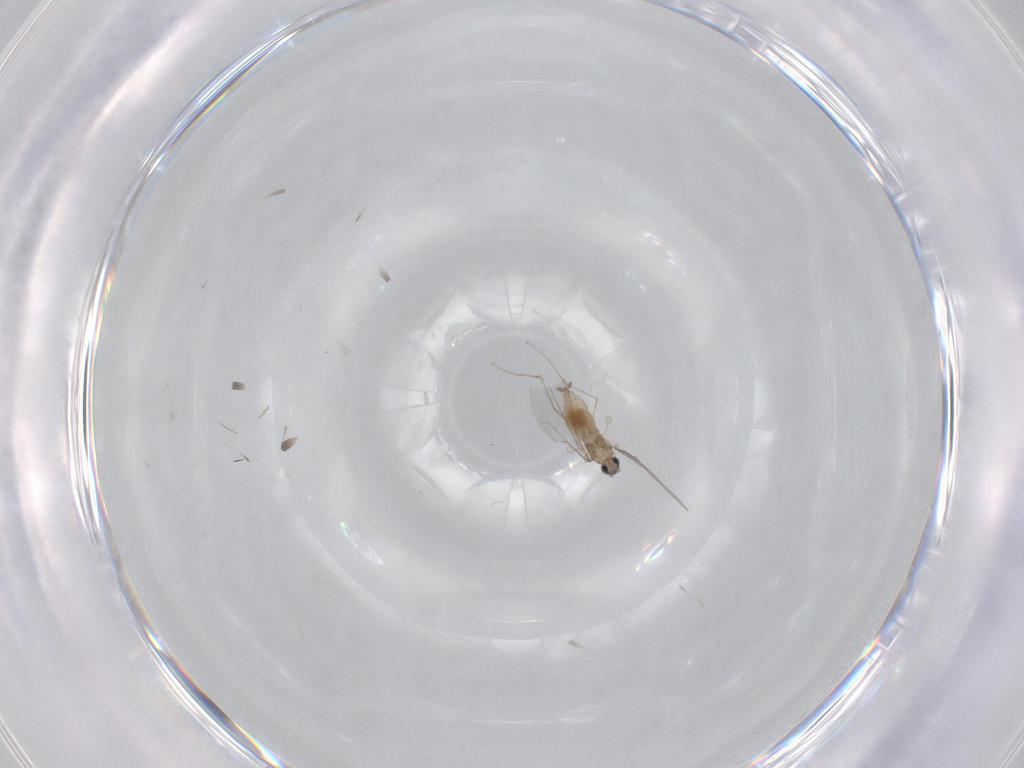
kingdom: Animalia
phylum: Arthropoda
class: Insecta
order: Diptera
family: Cecidomyiidae
